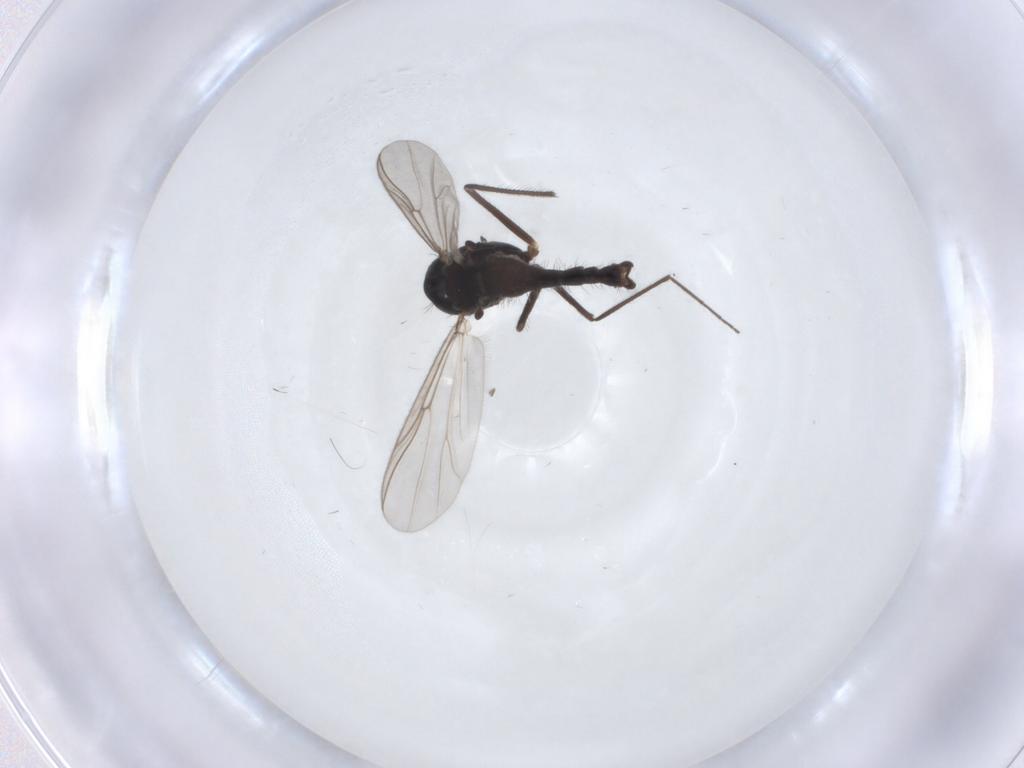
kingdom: Animalia
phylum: Arthropoda
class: Insecta
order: Diptera
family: Chironomidae
